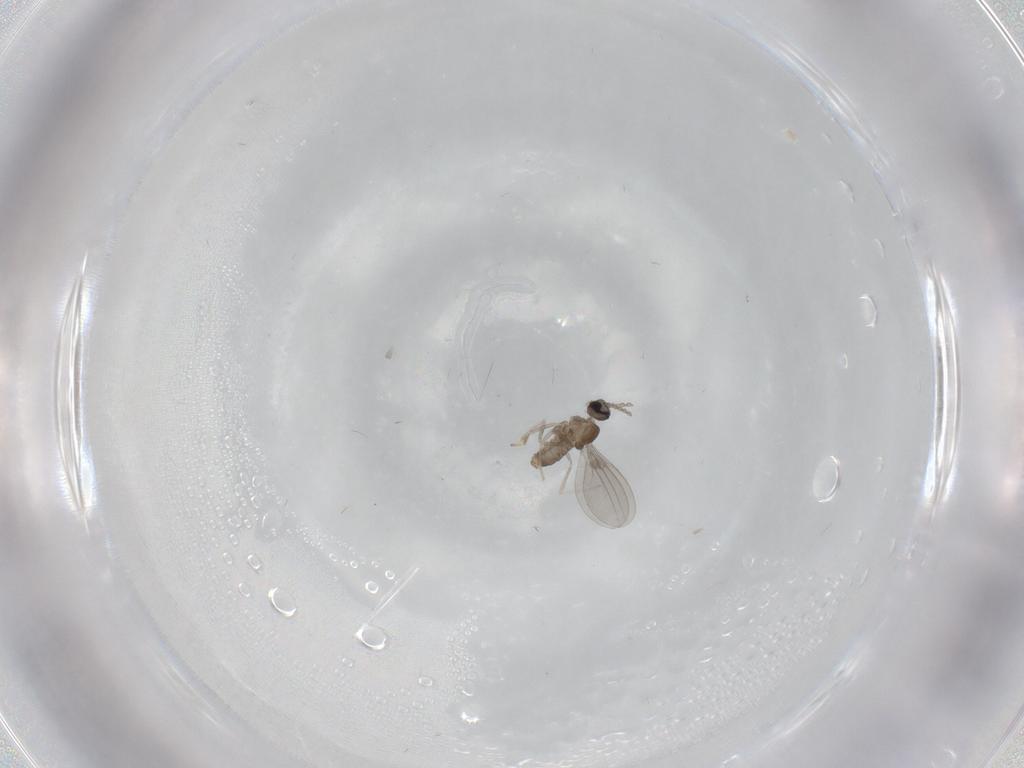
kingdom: Animalia
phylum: Arthropoda
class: Insecta
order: Diptera
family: Cecidomyiidae
